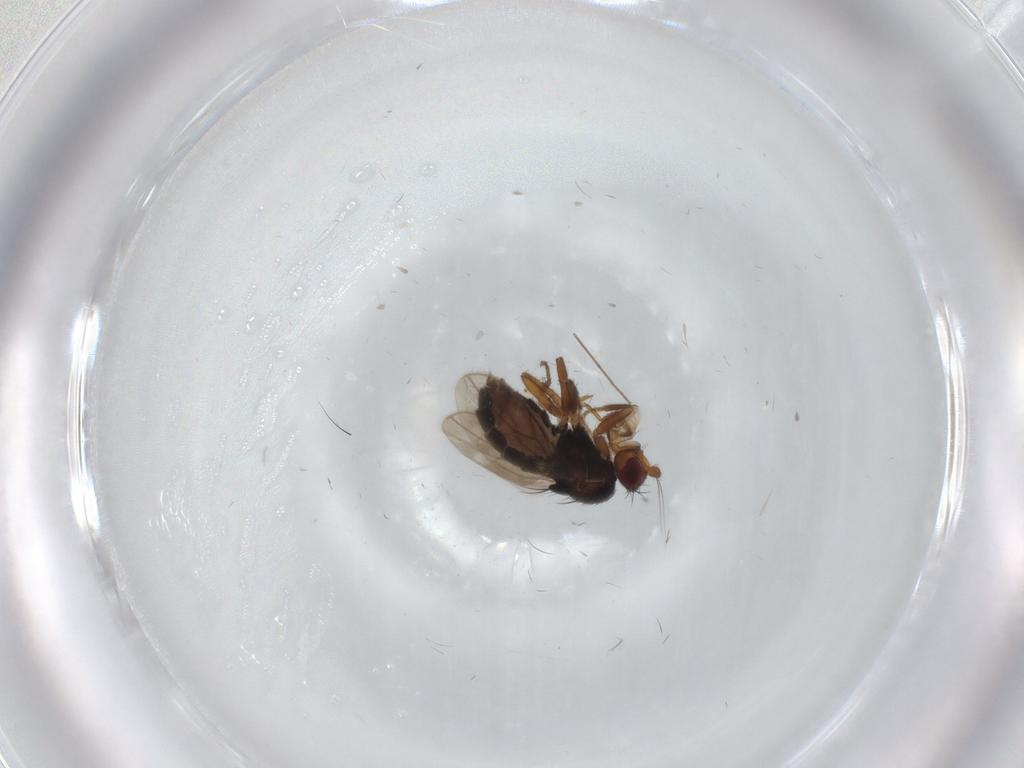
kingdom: Animalia
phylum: Arthropoda
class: Insecta
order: Diptera
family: Sphaeroceridae
